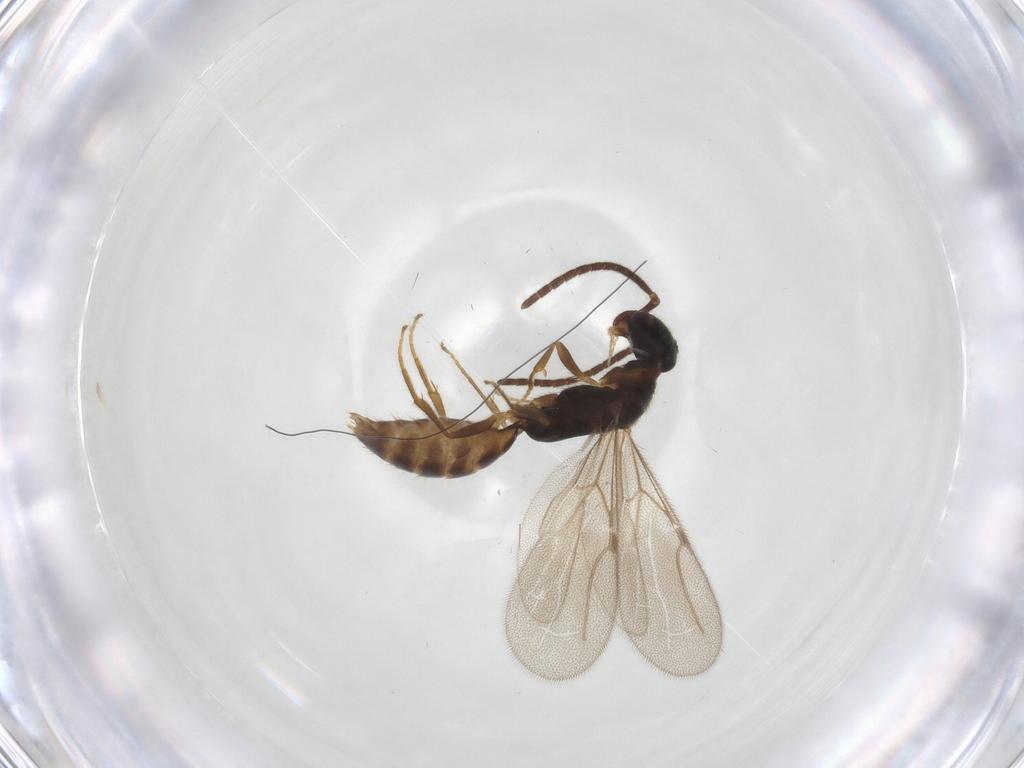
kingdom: Animalia
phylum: Arthropoda
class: Insecta
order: Hymenoptera
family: Bethylidae
